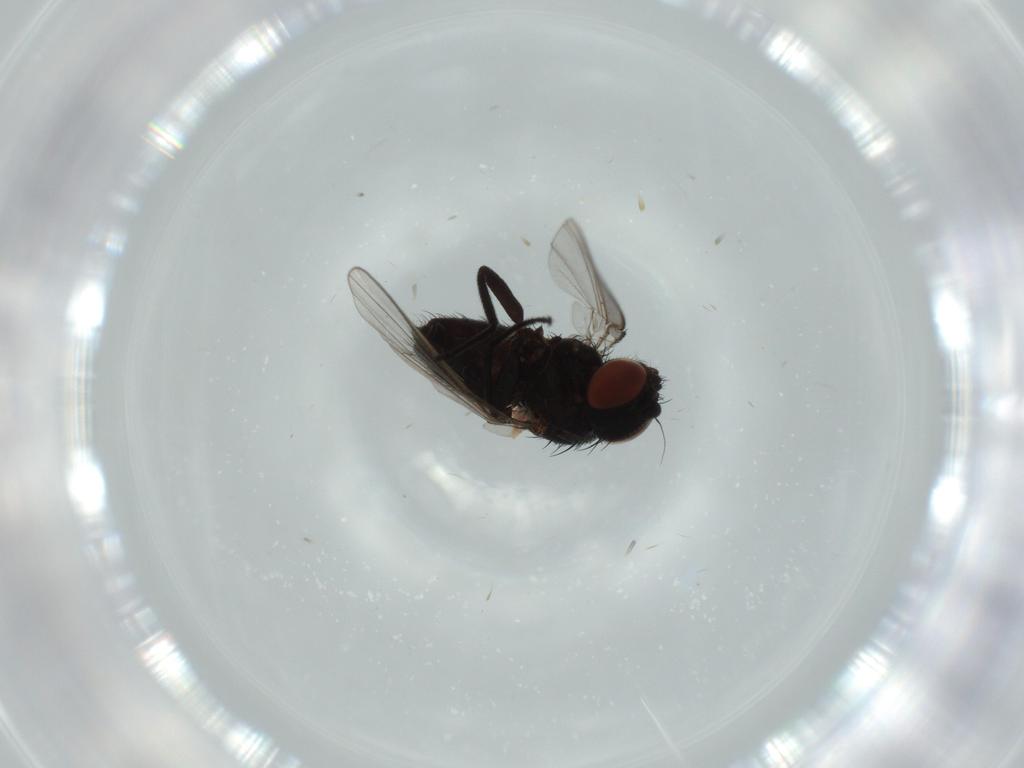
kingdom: Animalia
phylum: Arthropoda
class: Insecta
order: Diptera
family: Milichiidae
